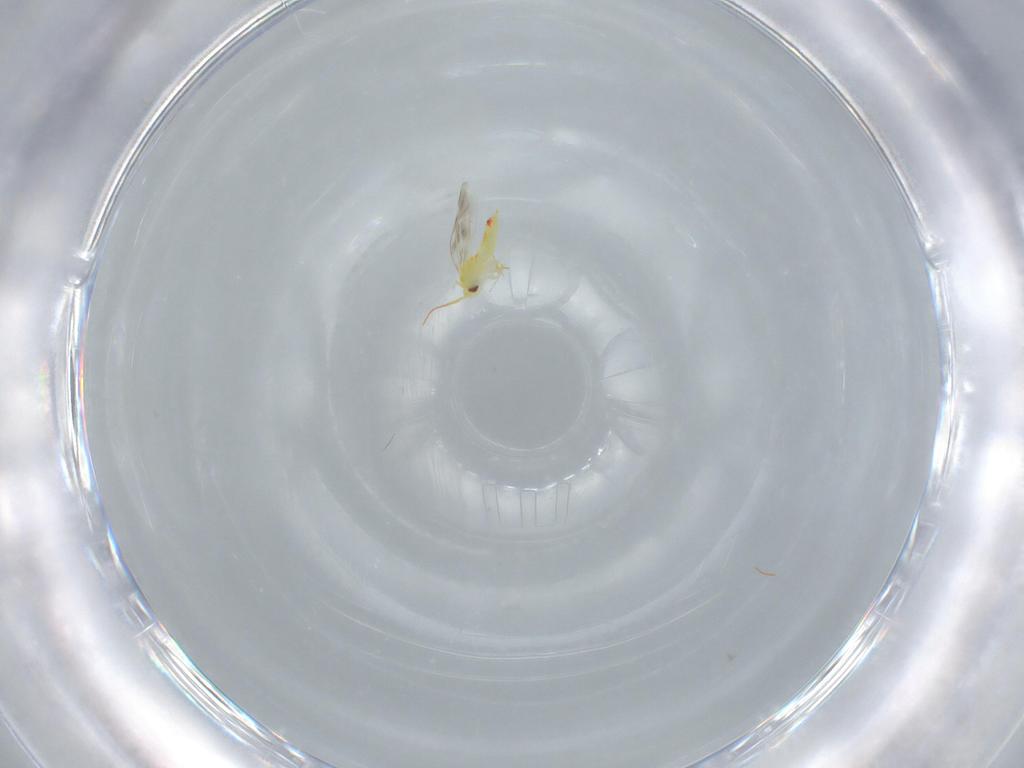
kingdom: Animalia
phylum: Arthropoda
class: Insecta
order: Hemiptera
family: Aleyrodidae
